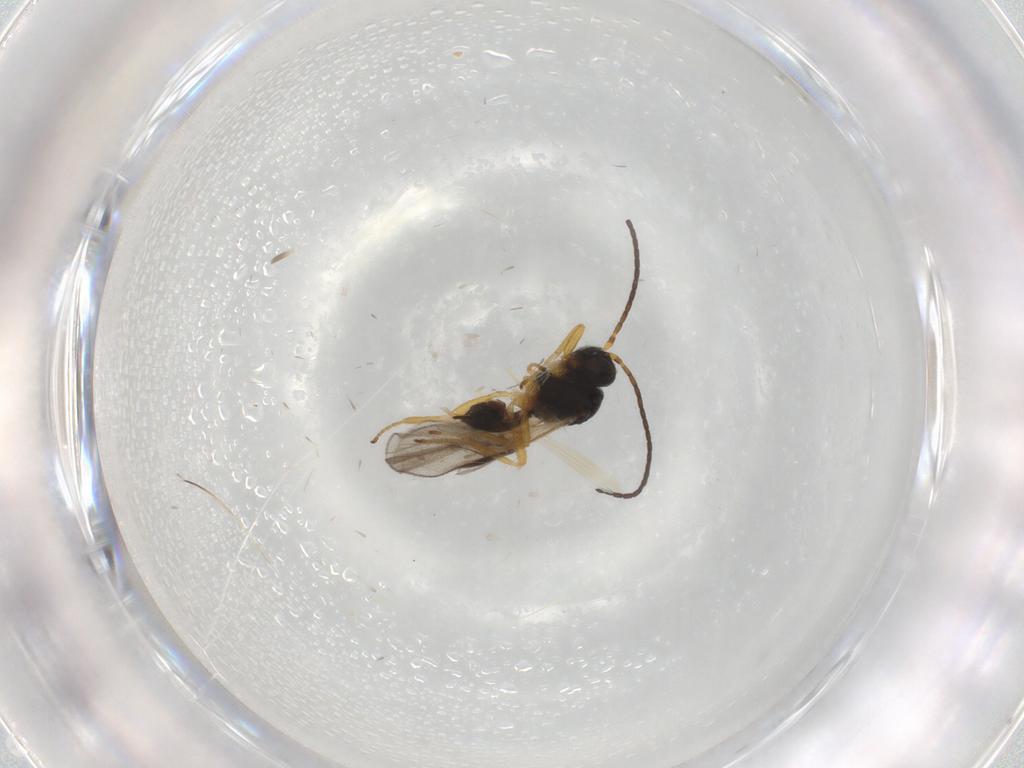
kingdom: Animalia
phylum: Arthropoda
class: Insecta
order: Hymenoptera
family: Braconidae
